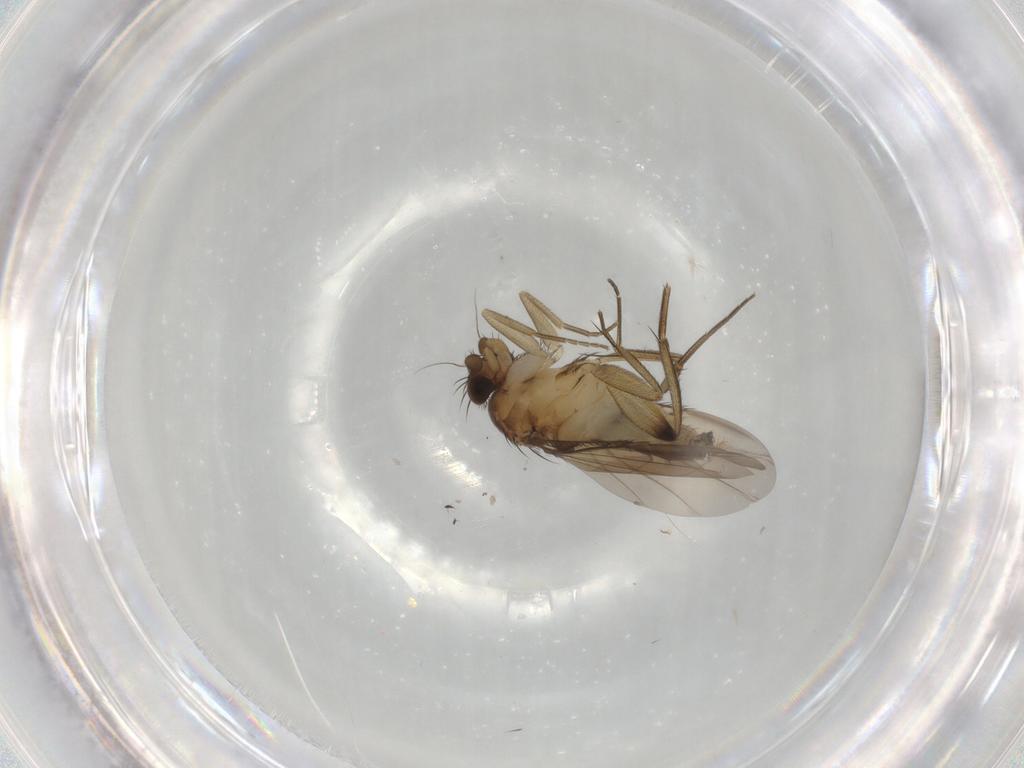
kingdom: Animalia
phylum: Arthropoda
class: Insecta
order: Diptera
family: Phoridae
